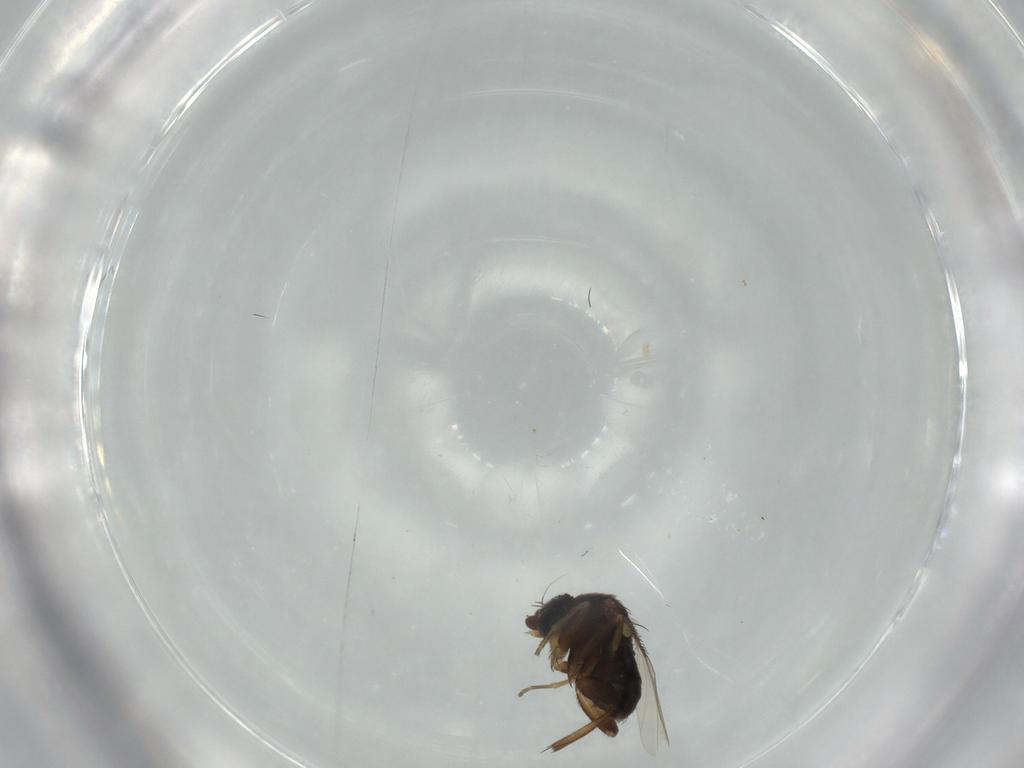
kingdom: Animalia
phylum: Arthropoda
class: Insecta
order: Diptera
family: Phoridae
